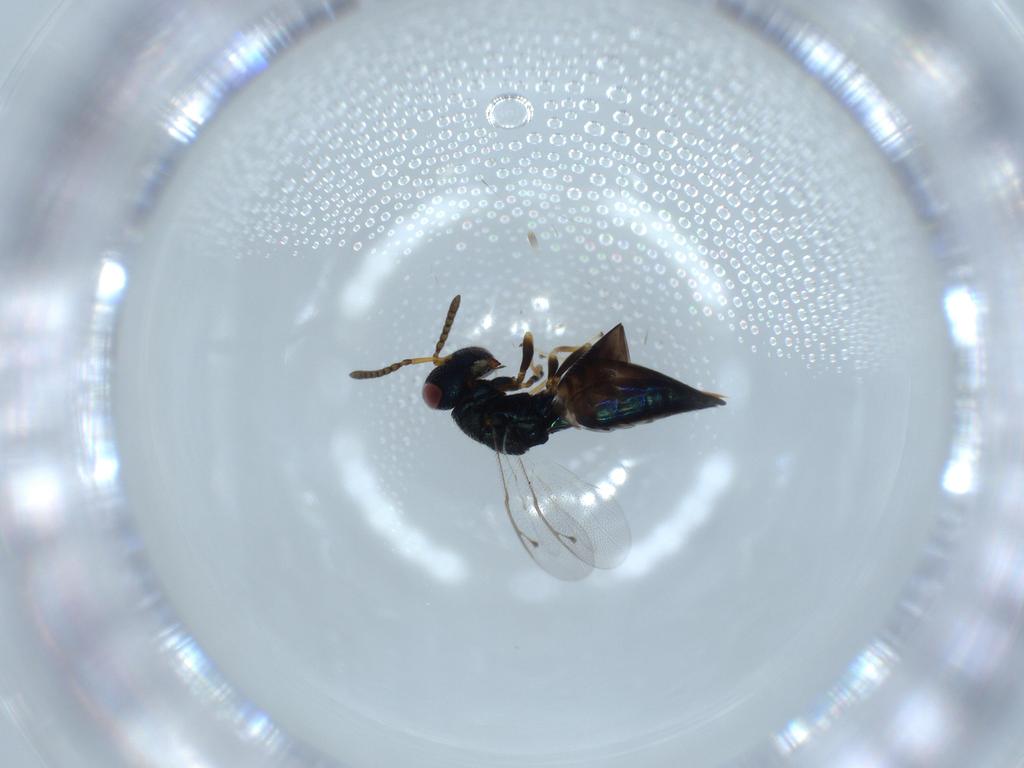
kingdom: Animalia
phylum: Arthropoda
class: Insecta
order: Hymenoptera
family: Pteromalidae
